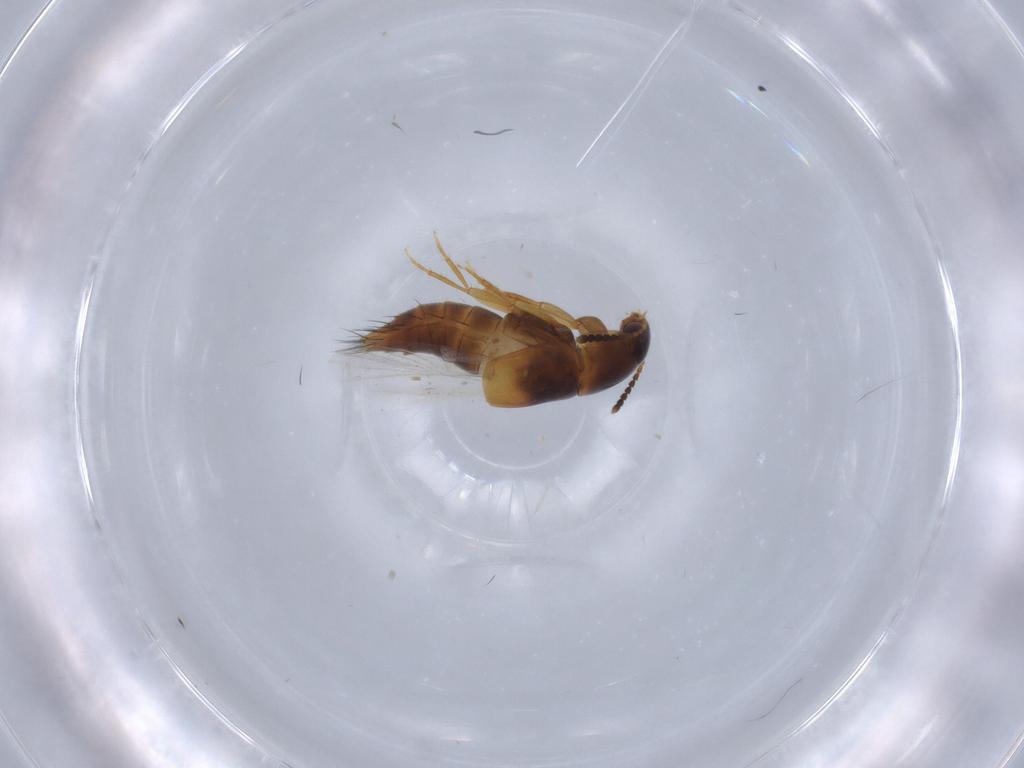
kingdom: Animalia
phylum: Arthropoda
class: Insecta
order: Coleoptera
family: Staphylinidae
